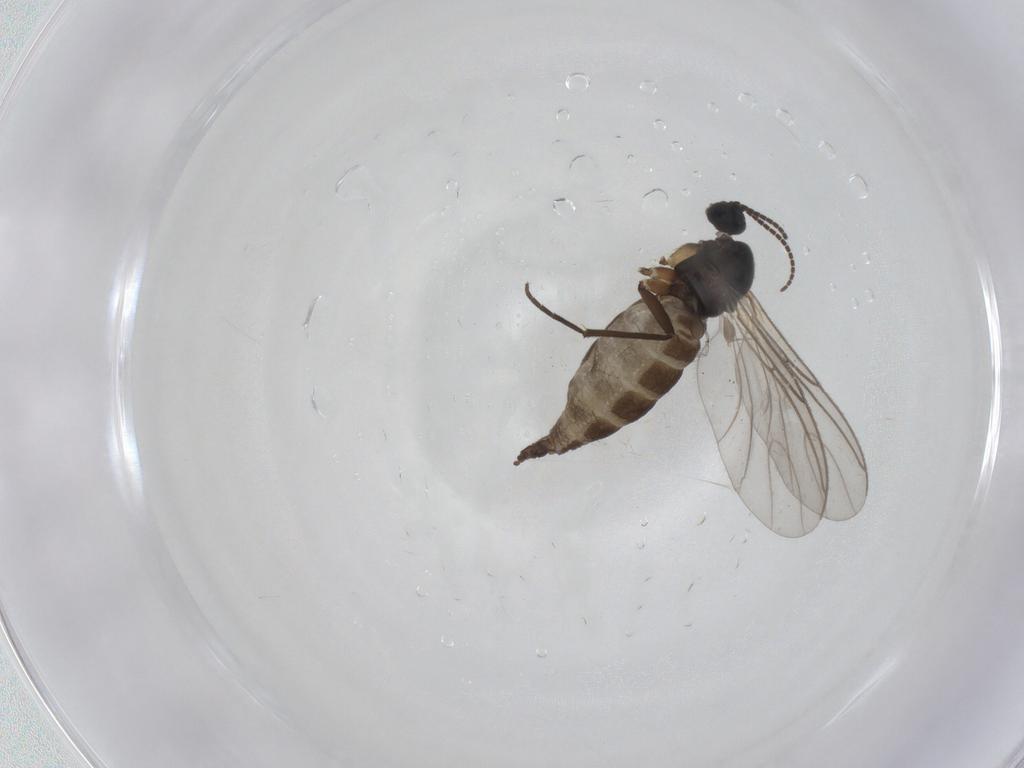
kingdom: Animalia
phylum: Arthropoda
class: Insecta
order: Diptera
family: Sciaridae
